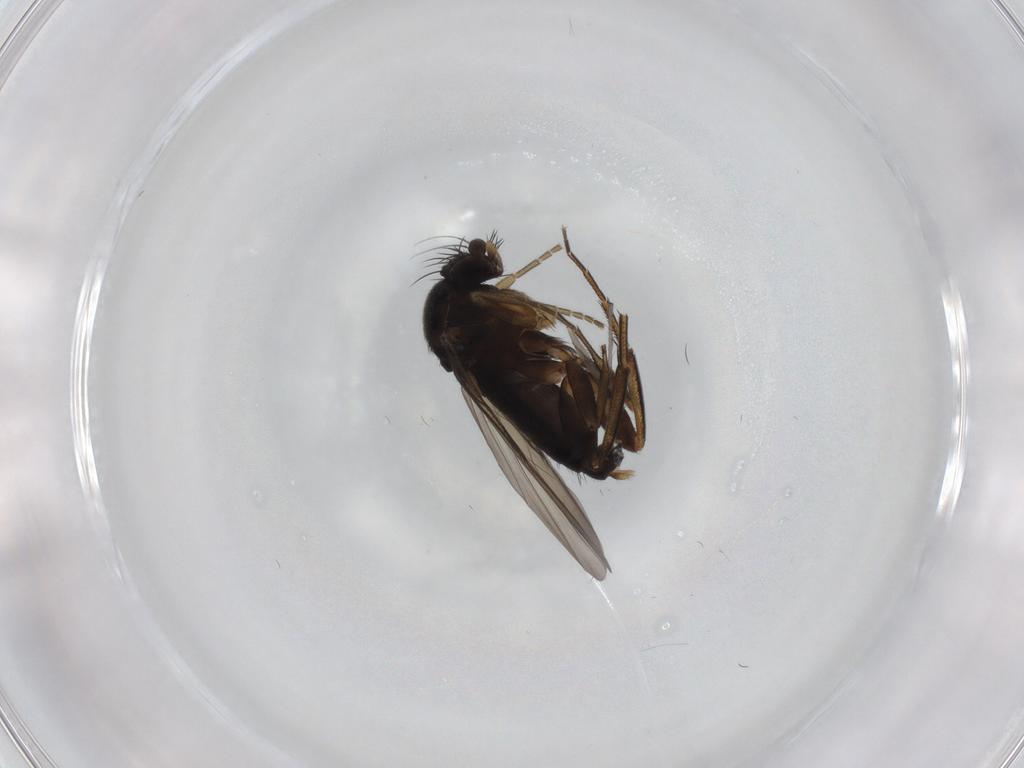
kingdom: Animalia
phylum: Arthropoda
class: Insecta
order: Diptera
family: Phoridae
